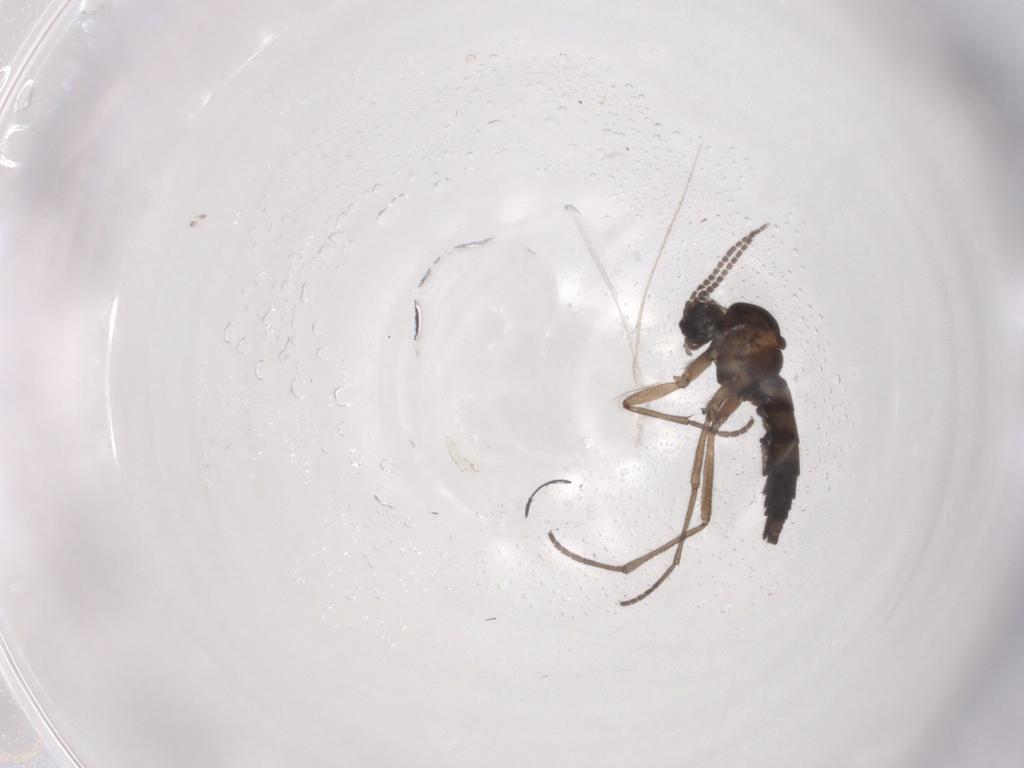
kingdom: Animalia
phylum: Arthropoda
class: Insecta
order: Diptera
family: Sciaridae
